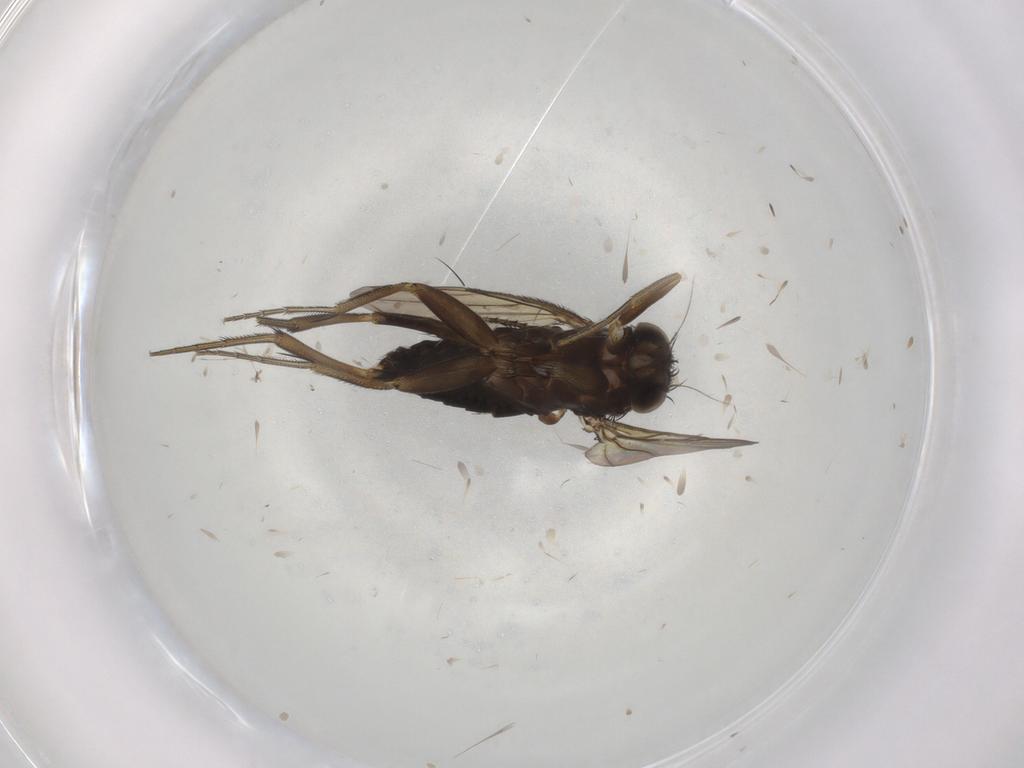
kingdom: Animalia
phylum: Arthropoda
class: Insecta
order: Diptera
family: Phoridae
